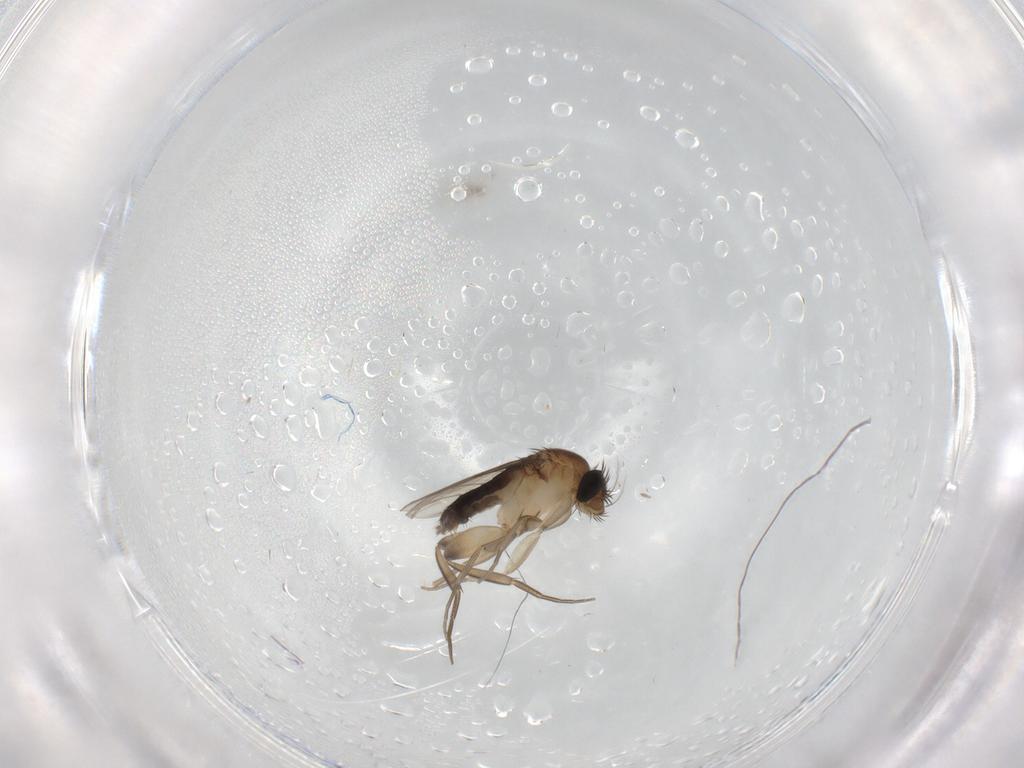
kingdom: Animalia
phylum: Arthropoda
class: Insecta
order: Diptera
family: Phoridae
